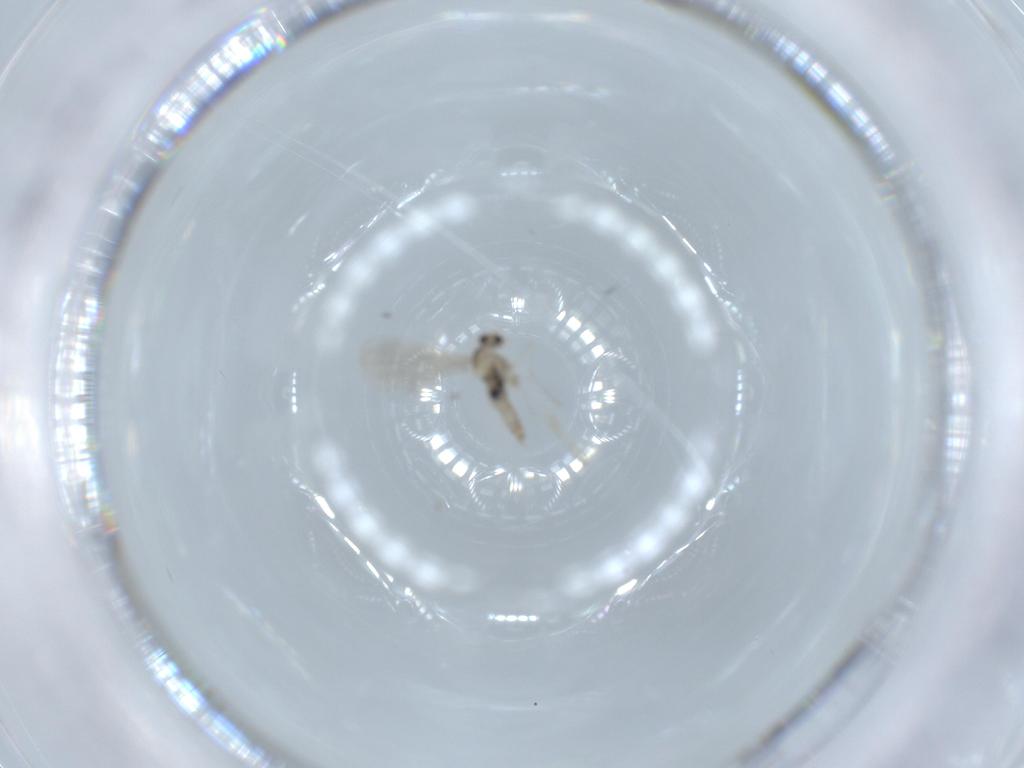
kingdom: Animalia
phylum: Arthropoda
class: Insecta
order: Diptera
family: Cecidomyiidae
